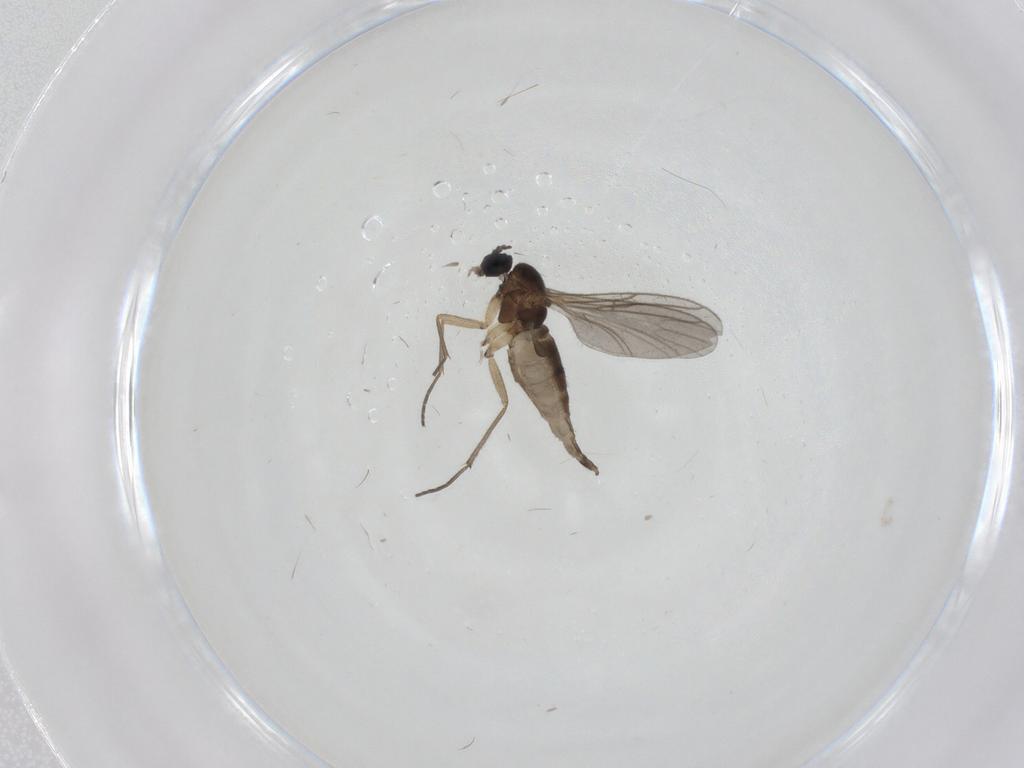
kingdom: Animalia
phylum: Arthropoda
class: Insecta
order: Diptera
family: Sciaridae
